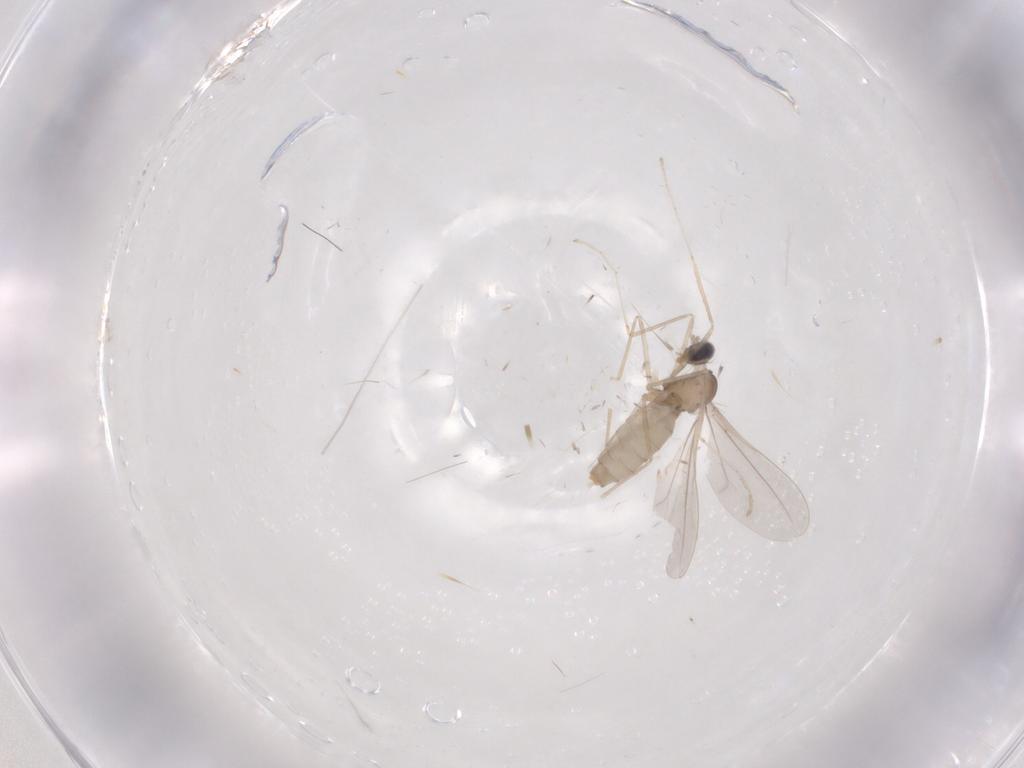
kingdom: Animalia
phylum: Arthropoda
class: Insecta
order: Diptera
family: Cecidomyiidae
